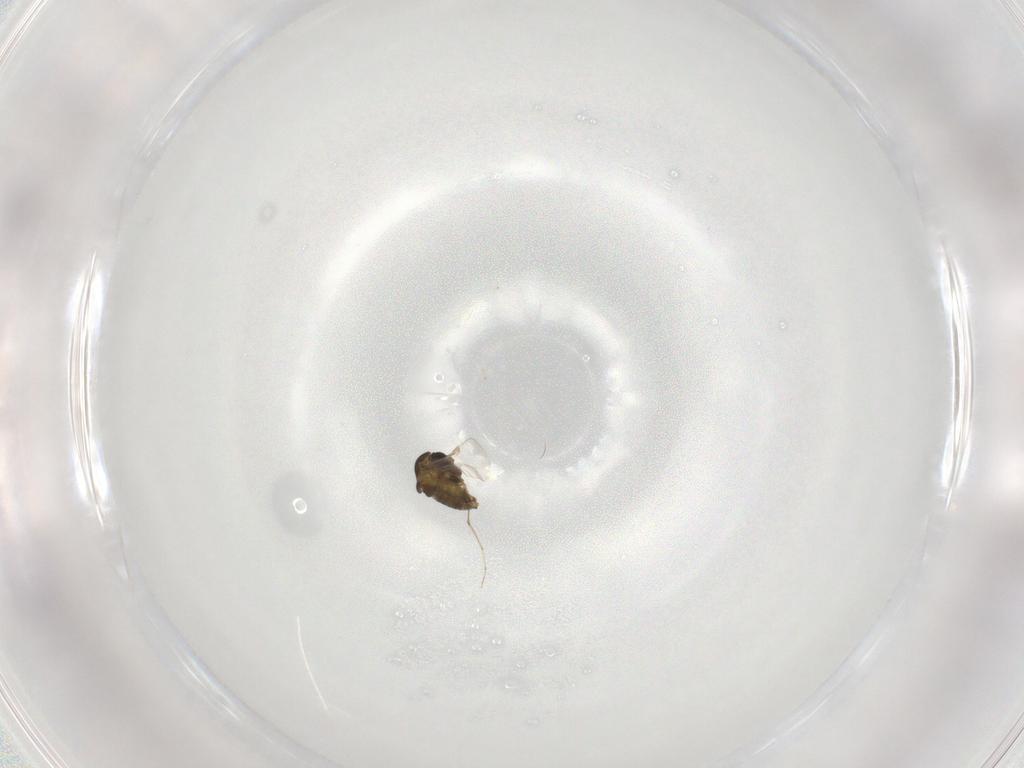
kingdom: Animalia
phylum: Arthropoda
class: Insecta
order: Diptera
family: Chironomidae
